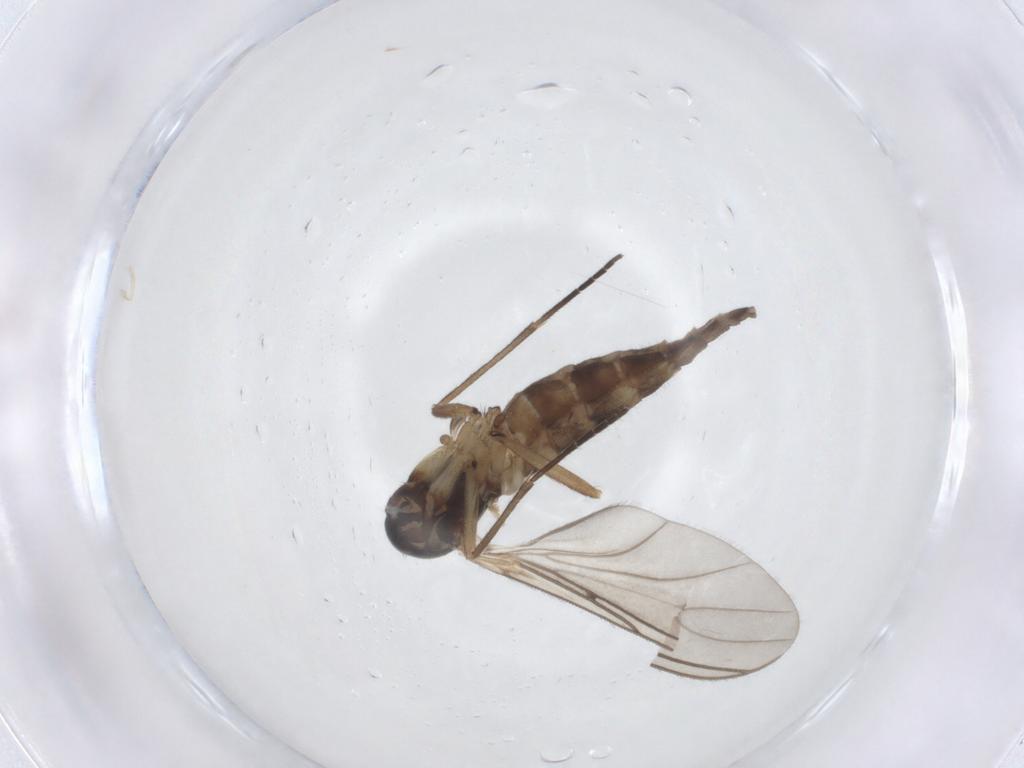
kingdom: Animalia
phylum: Arthropoda
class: Insecta
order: Diptera
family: Sciaridae
